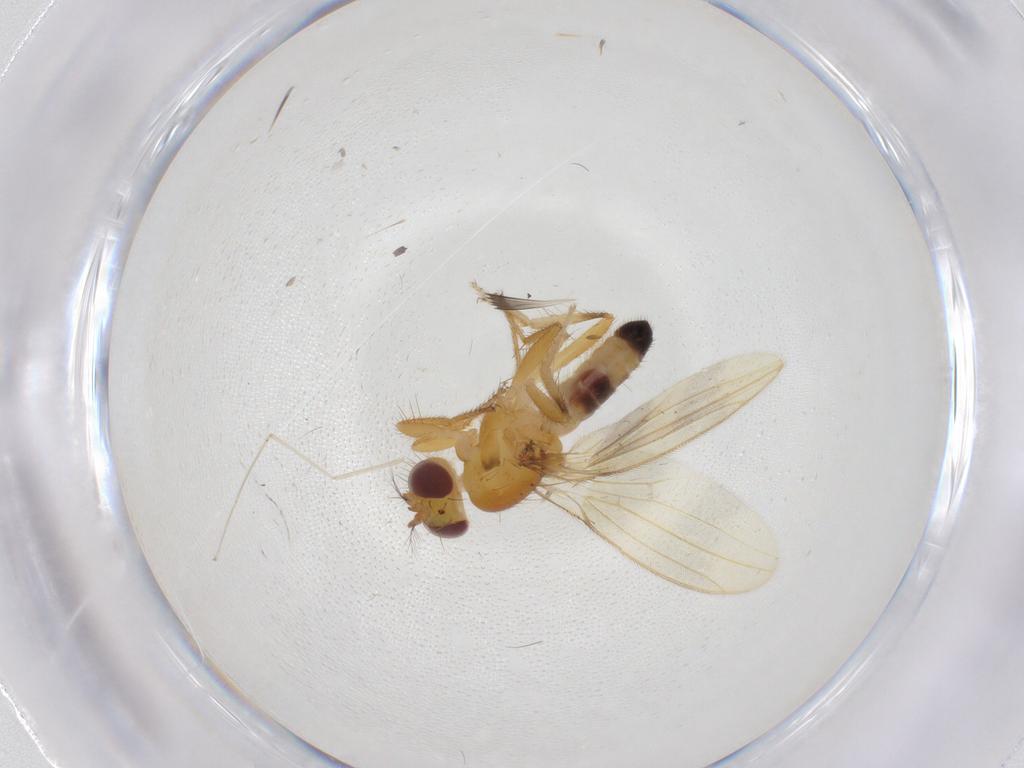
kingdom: Animalia
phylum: Arthropoda
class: Insecta
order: Diptera
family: Periscelididae
